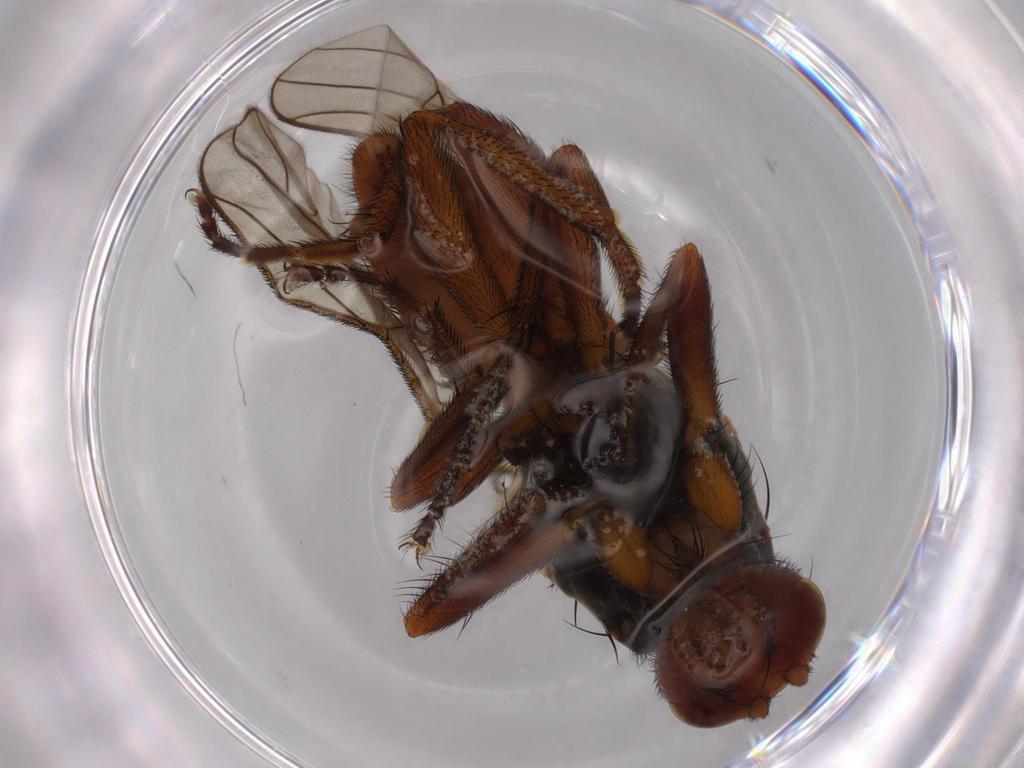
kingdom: Animalia
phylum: Arthropoda
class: Insecta
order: Diptera
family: Heleomyzidae
